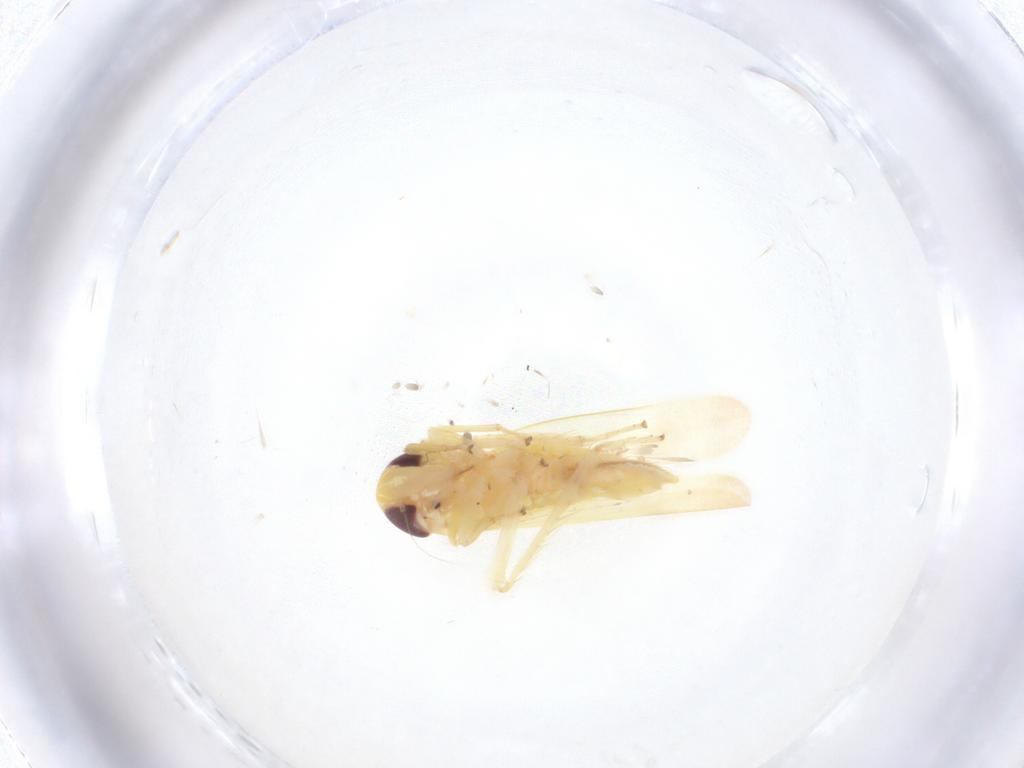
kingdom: Animalia
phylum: Arthropoda
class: Insecta
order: Hemiptera
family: Cicadellidae
